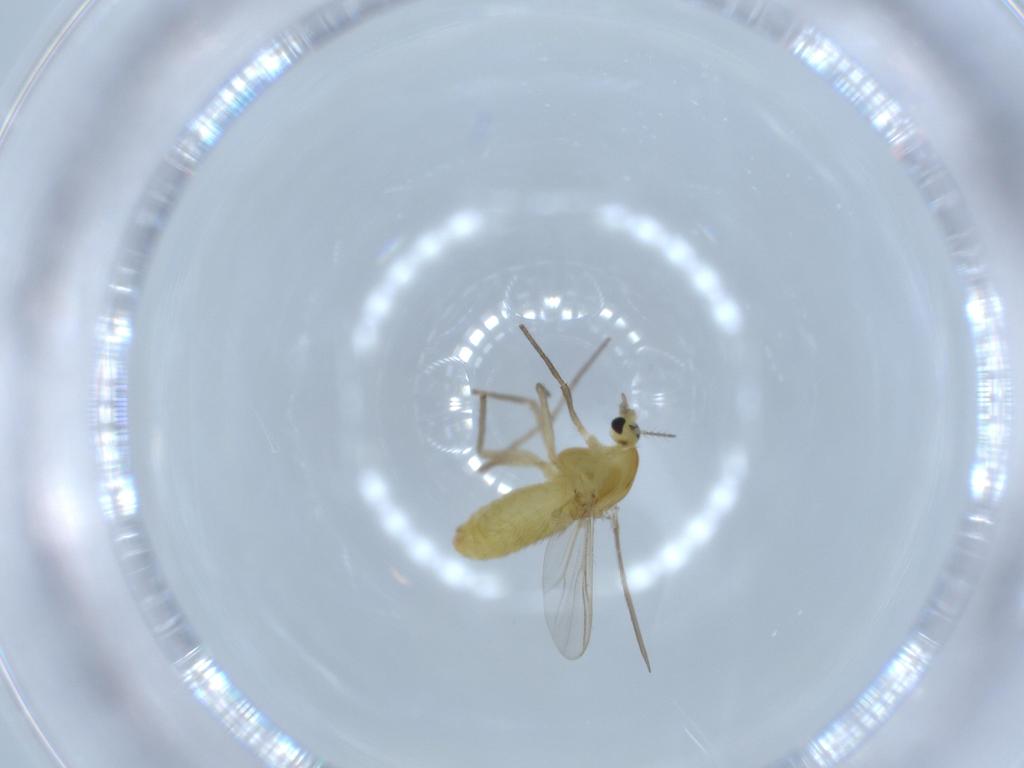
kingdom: Animalia
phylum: Arthropoda
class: Insecta
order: Diptera
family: Chironomidae
